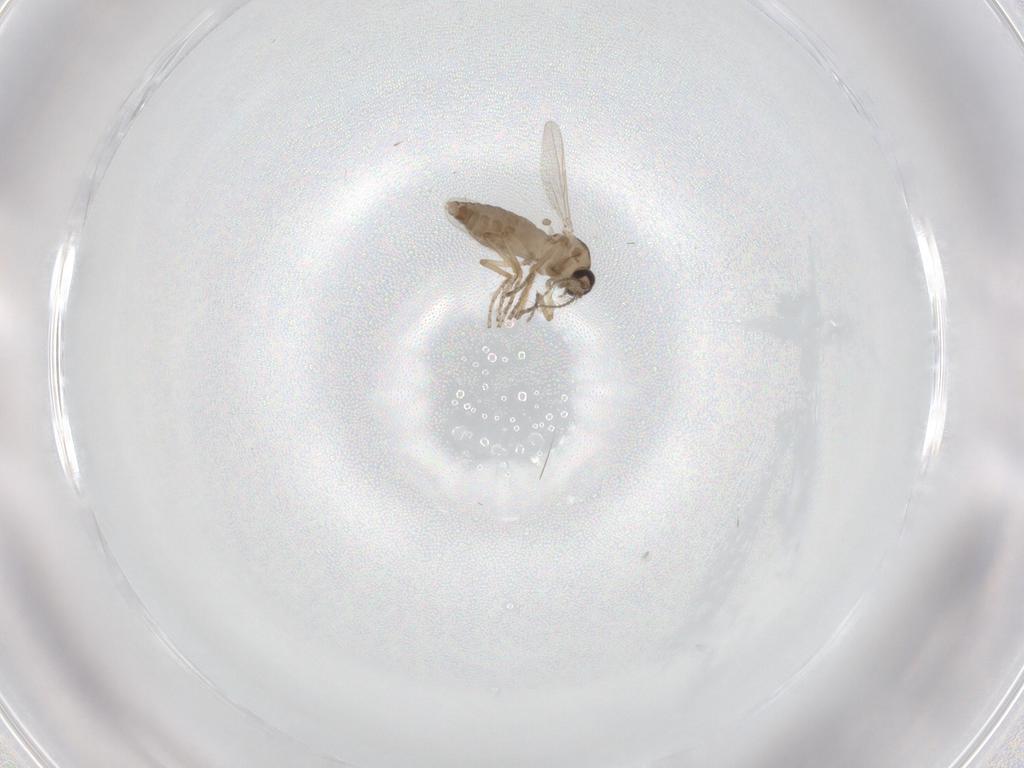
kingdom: Animalia
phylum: Arthropoda
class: Insecta
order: Diptera
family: Ceratopogonidae
